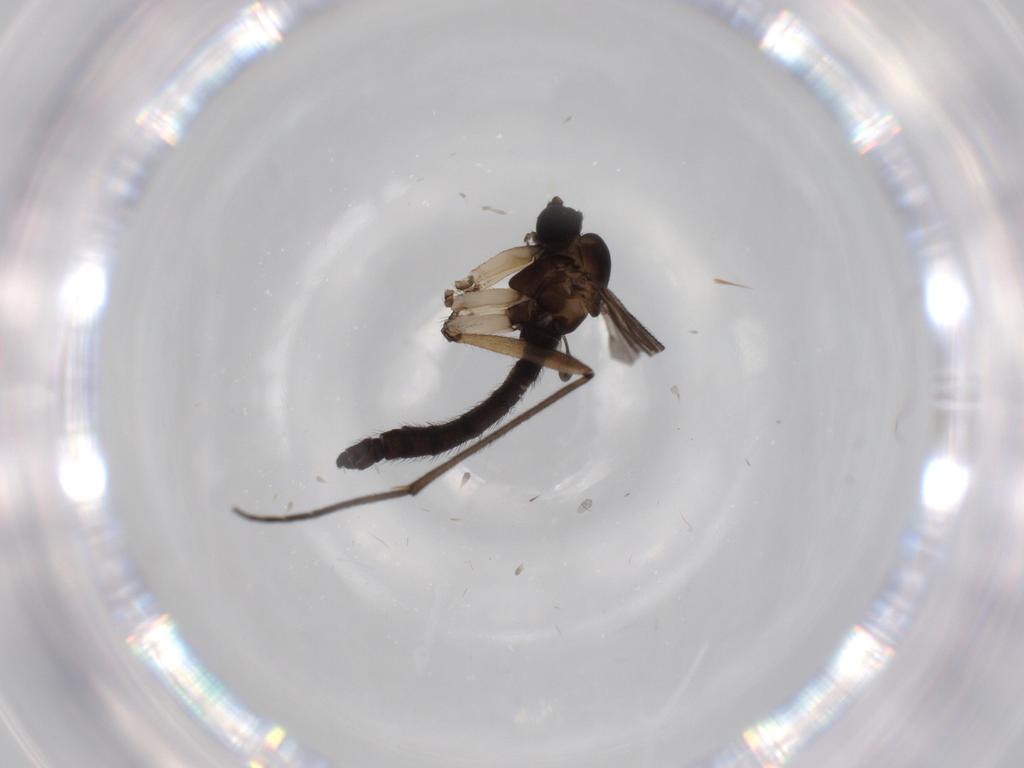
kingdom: Animalia
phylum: Arthropoda
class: Insecta
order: Diptera
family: Sciaridae
